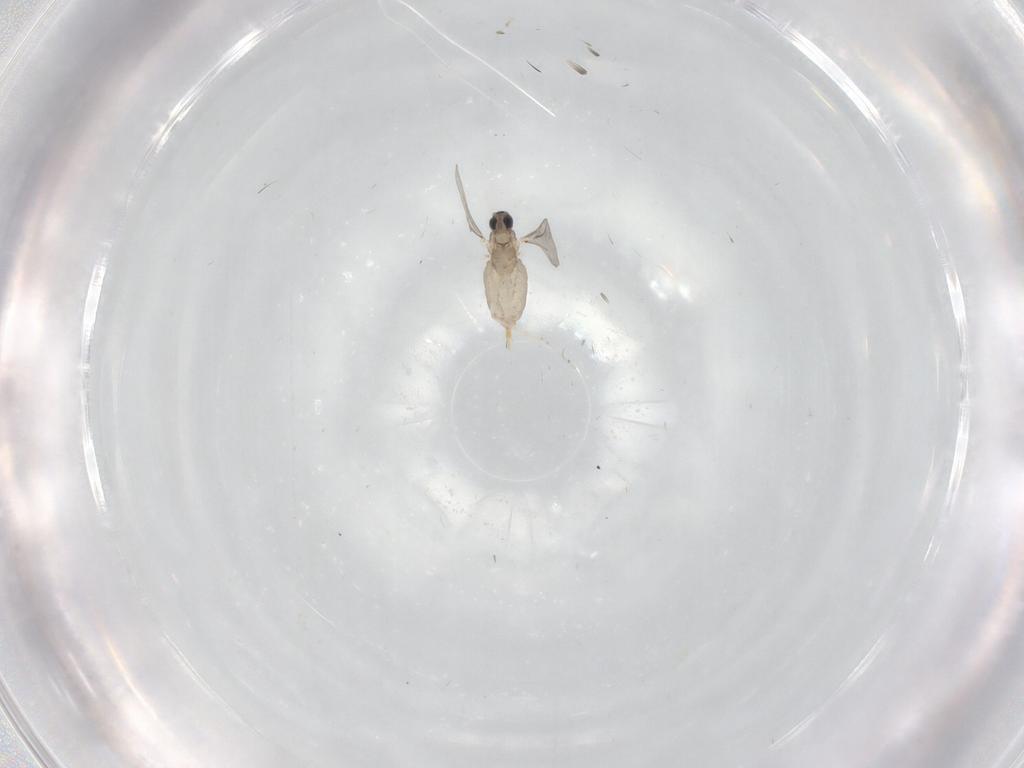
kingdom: Animalia
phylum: Arthropoda
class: Insecta
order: Diptera
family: Cecidomyiidae
